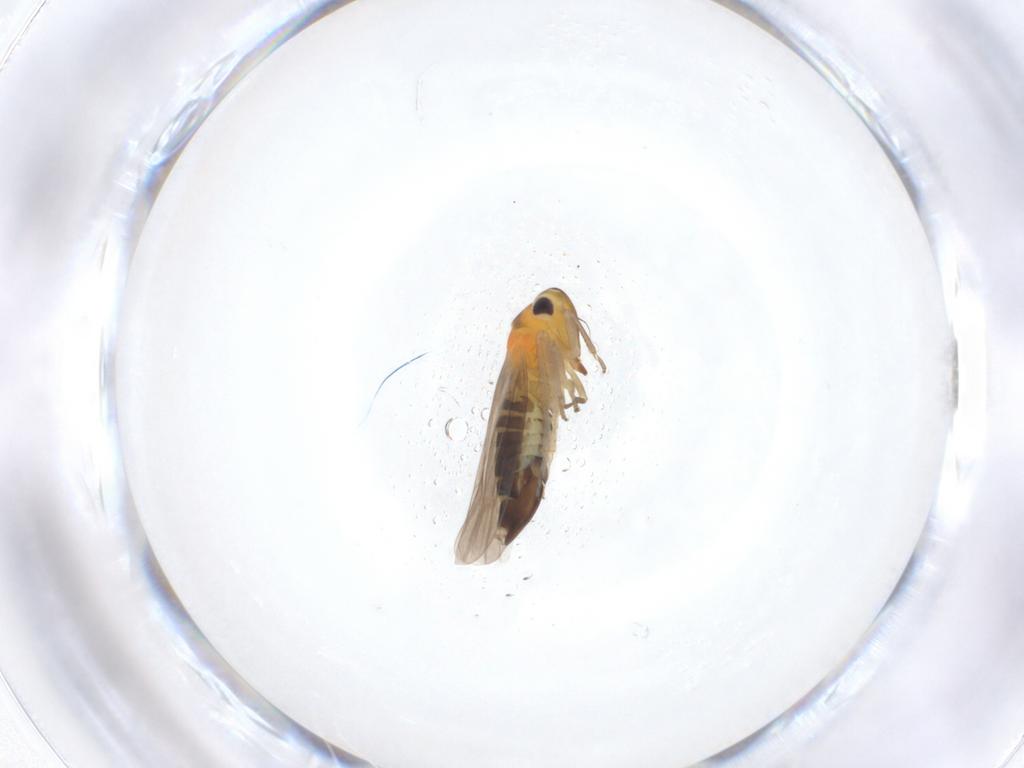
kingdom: Animalia
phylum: Arthropoda
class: Insecta
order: Hemiptera
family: Cicadellidae
